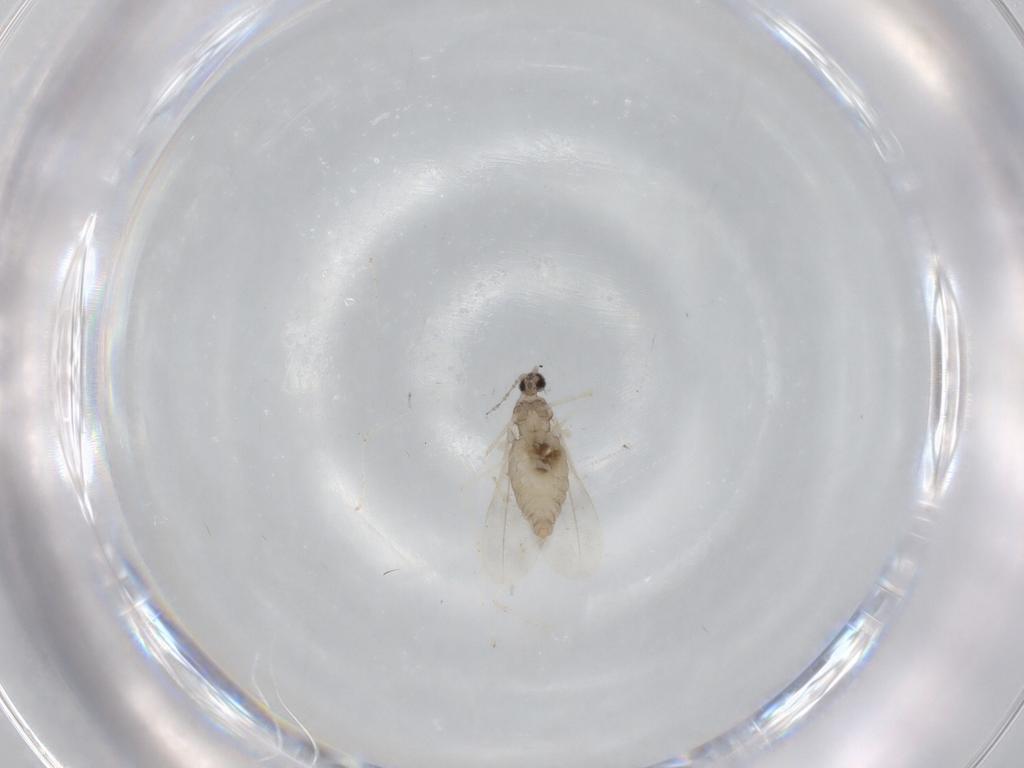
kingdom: Animalia
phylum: Arthropoda
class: Insecta
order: Diptera
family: Cecidomyiidae
